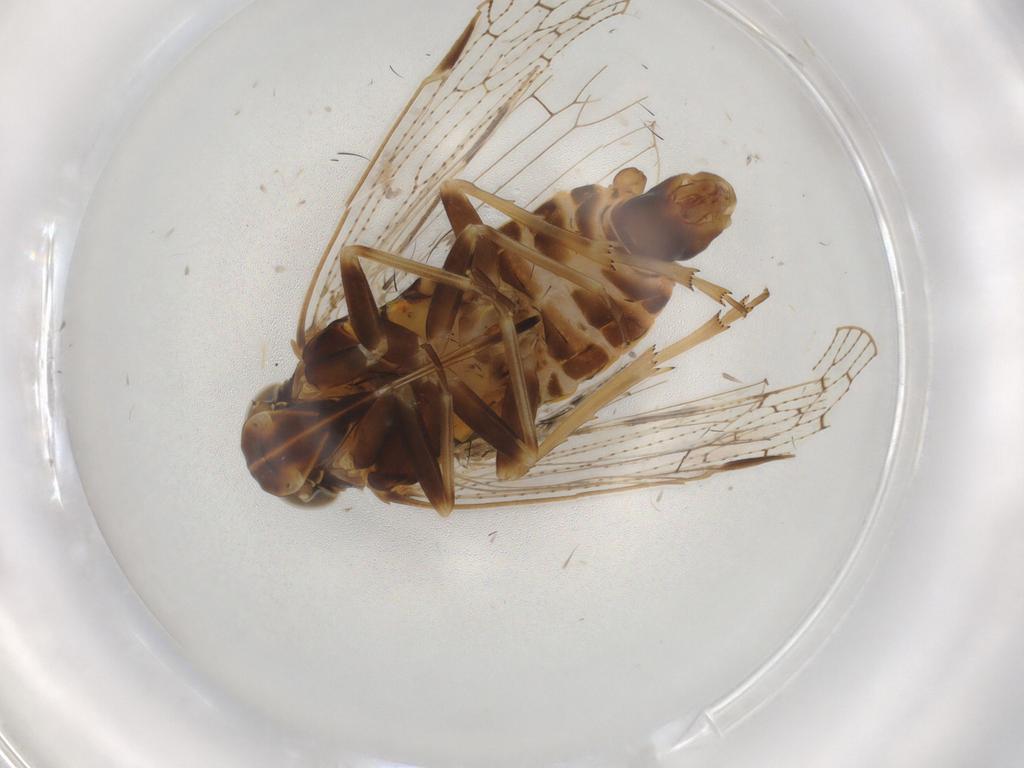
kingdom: Animalia
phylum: Arthropoda
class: Insecta
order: Hemiptera
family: Cixiidae
